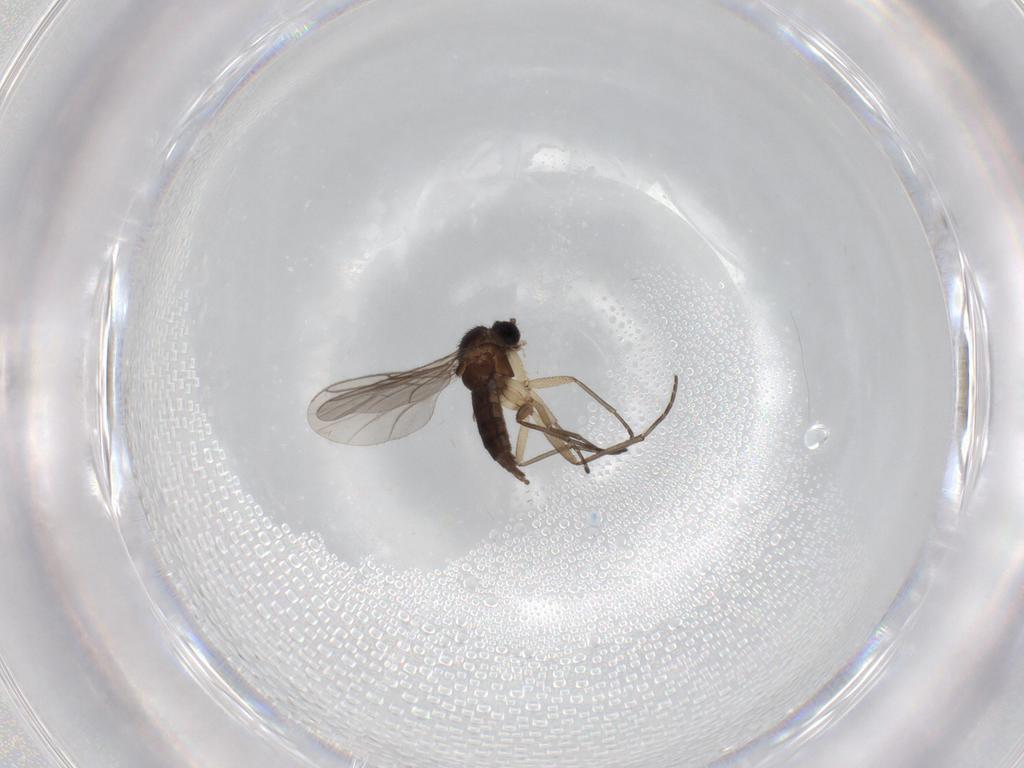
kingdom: Animalia
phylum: Arthropoda
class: Insecta
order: Diptera
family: Sciaridae
